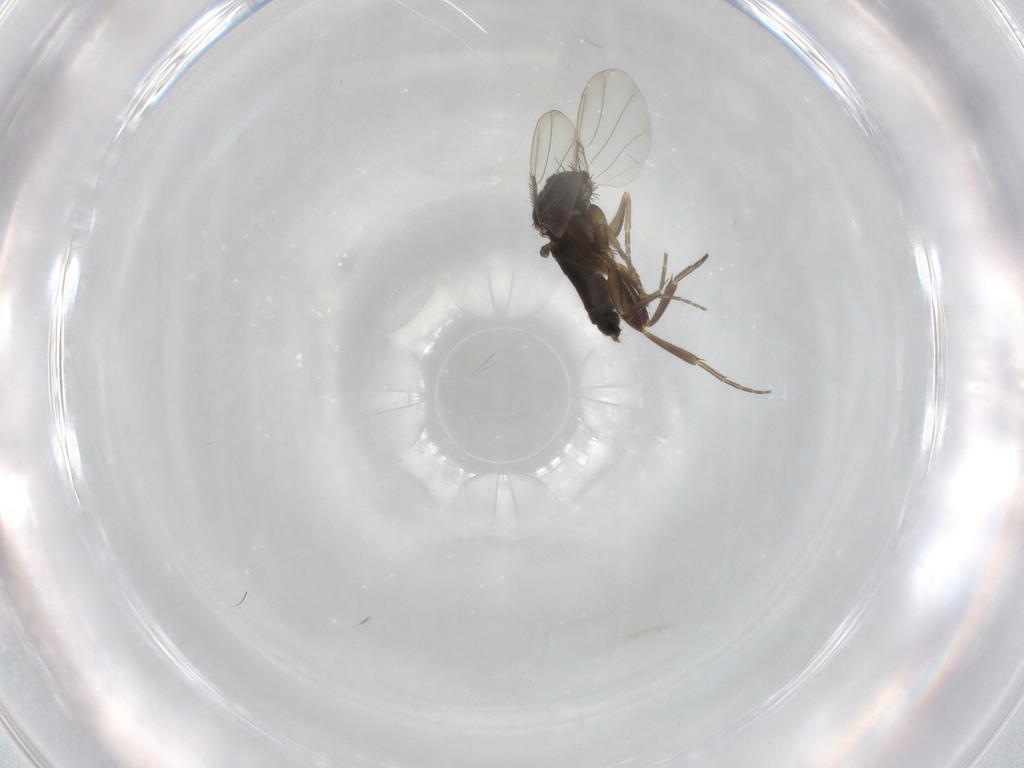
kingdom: Animalia
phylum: Arthropoda
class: Insecta
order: Diptera
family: Phoridae
